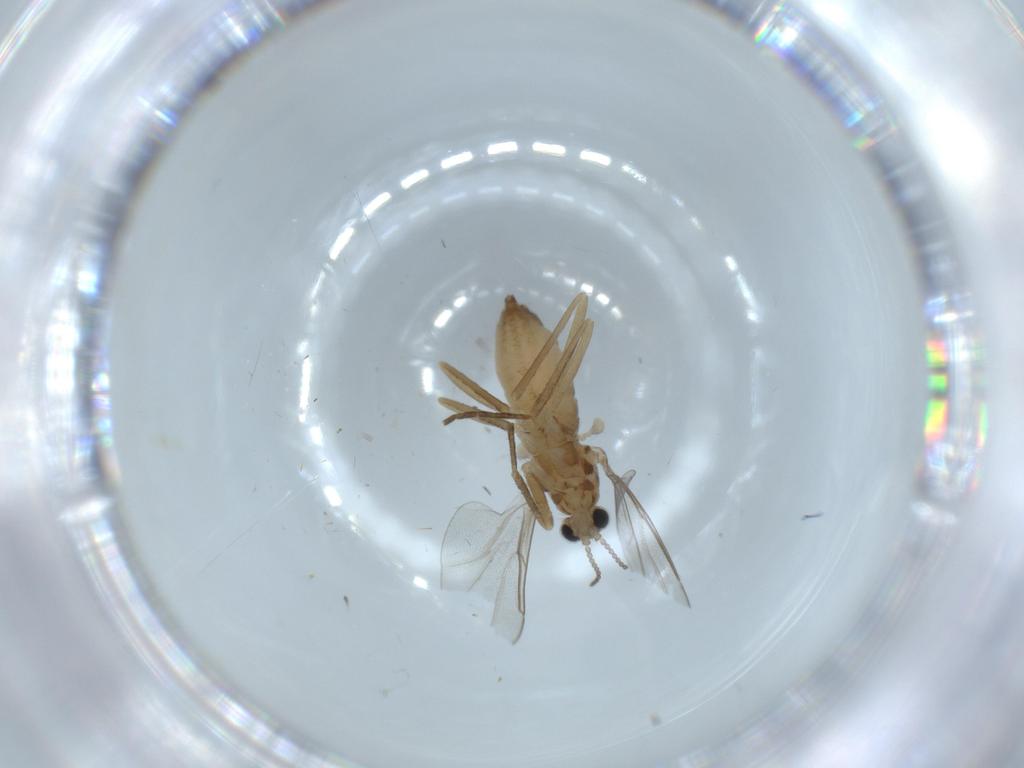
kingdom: Animalia
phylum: Arthropoda
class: Insecta
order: Diptera
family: Cecidomyiidae
